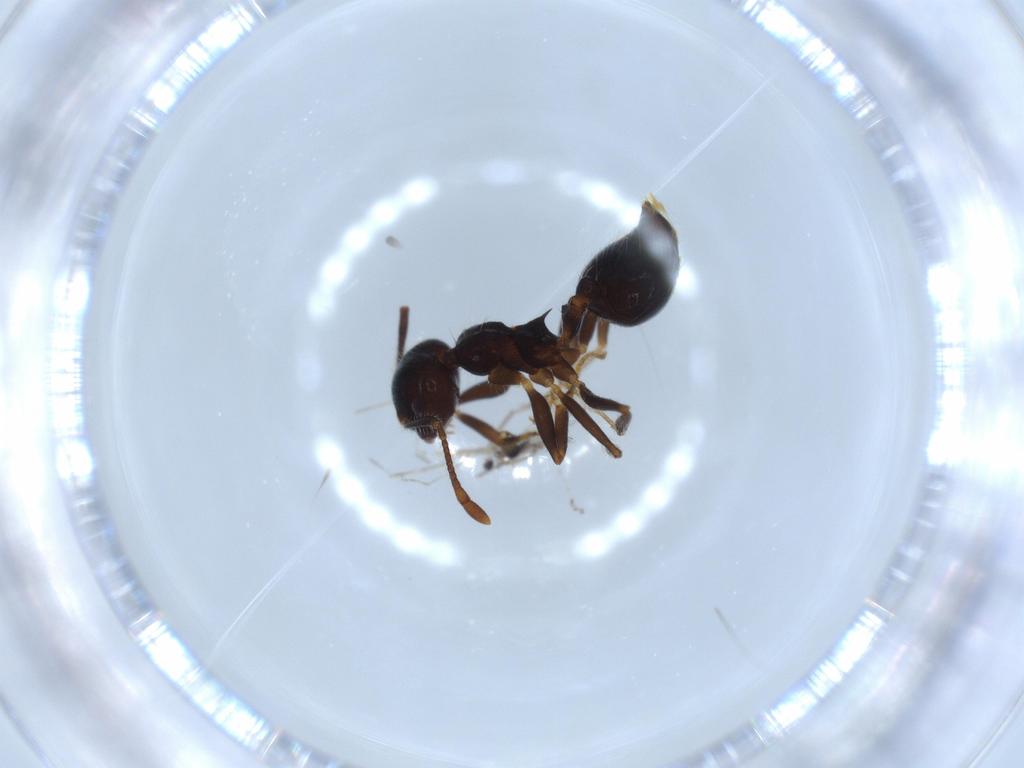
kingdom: Animalia
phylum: Arthropoda
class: Insecta
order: Hymenoptera
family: Formicidae
